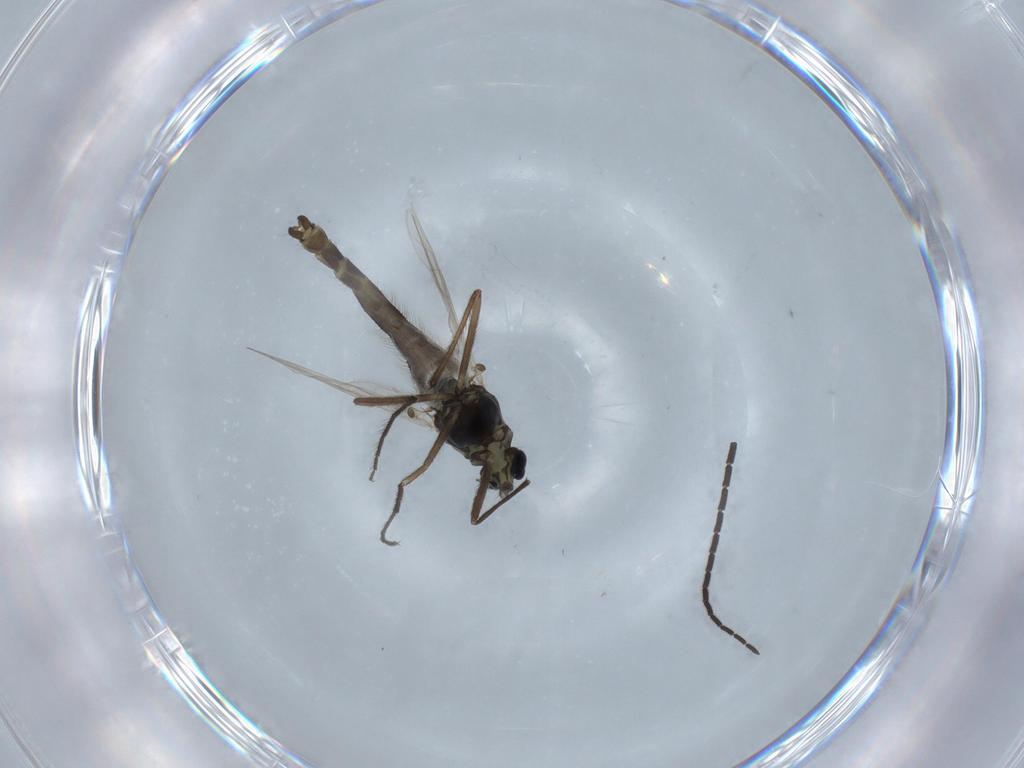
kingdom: Animalia
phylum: Arthropoda
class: Insecta
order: Diptera
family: Chironomidae
